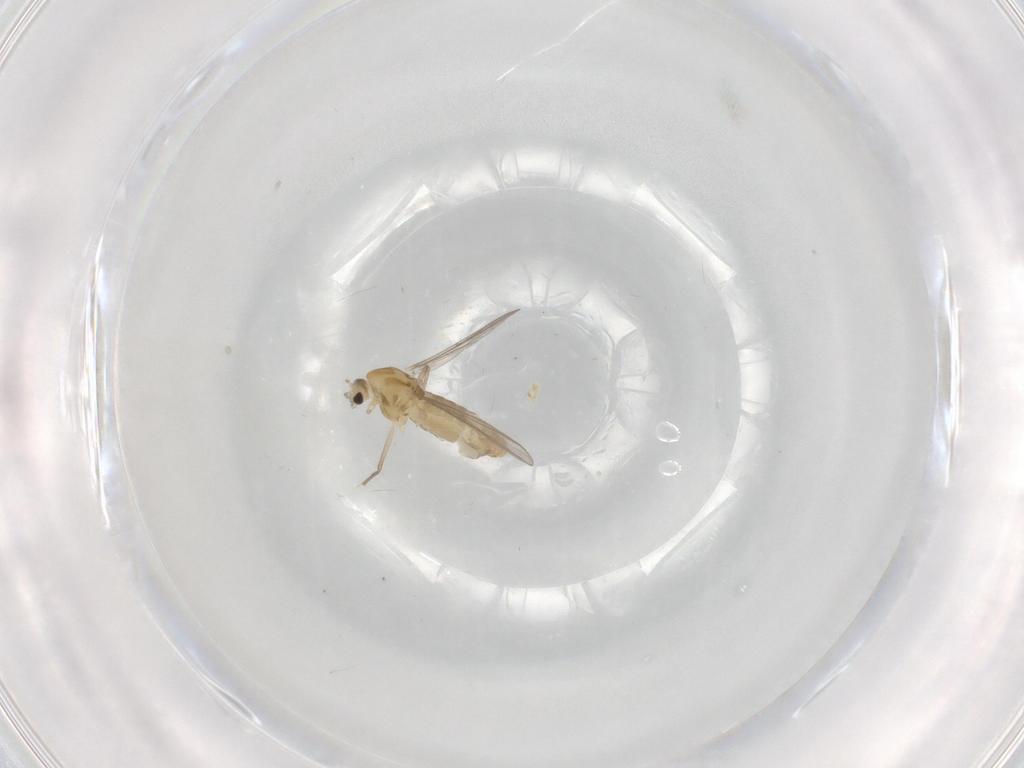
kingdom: Animalia
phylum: Arthropoda
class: Insecta
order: Diptera
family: Chironomidae
